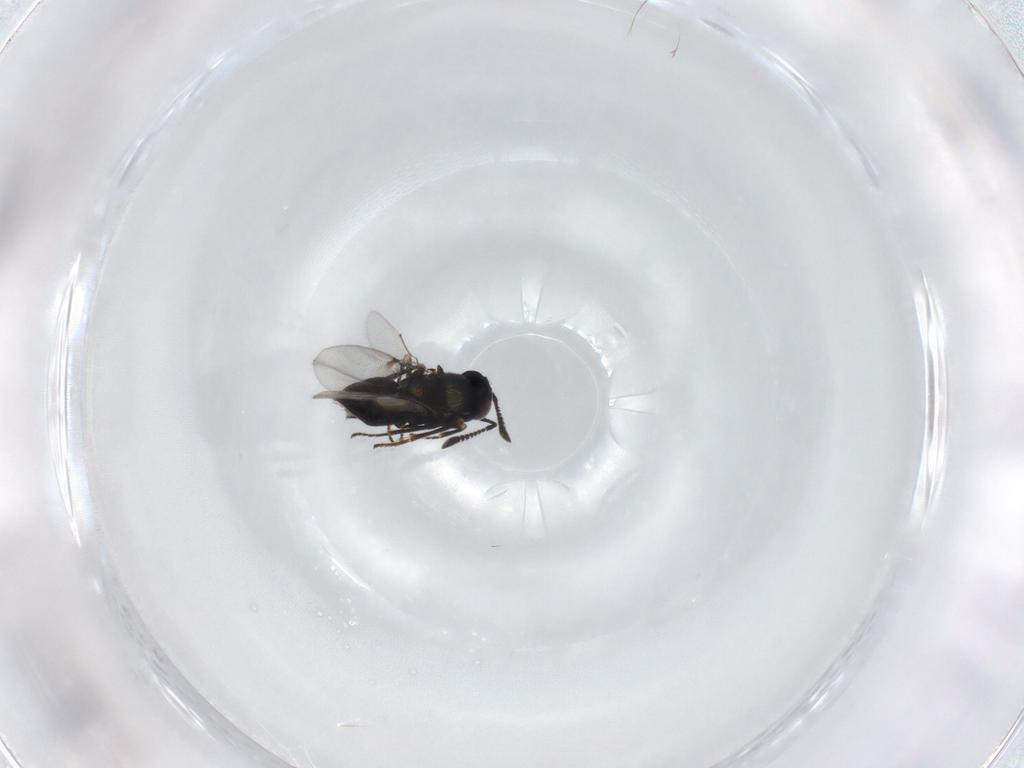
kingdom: Animalia
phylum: Arthropoda
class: Insecta
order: Hymenoptera
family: Encyrtidae
